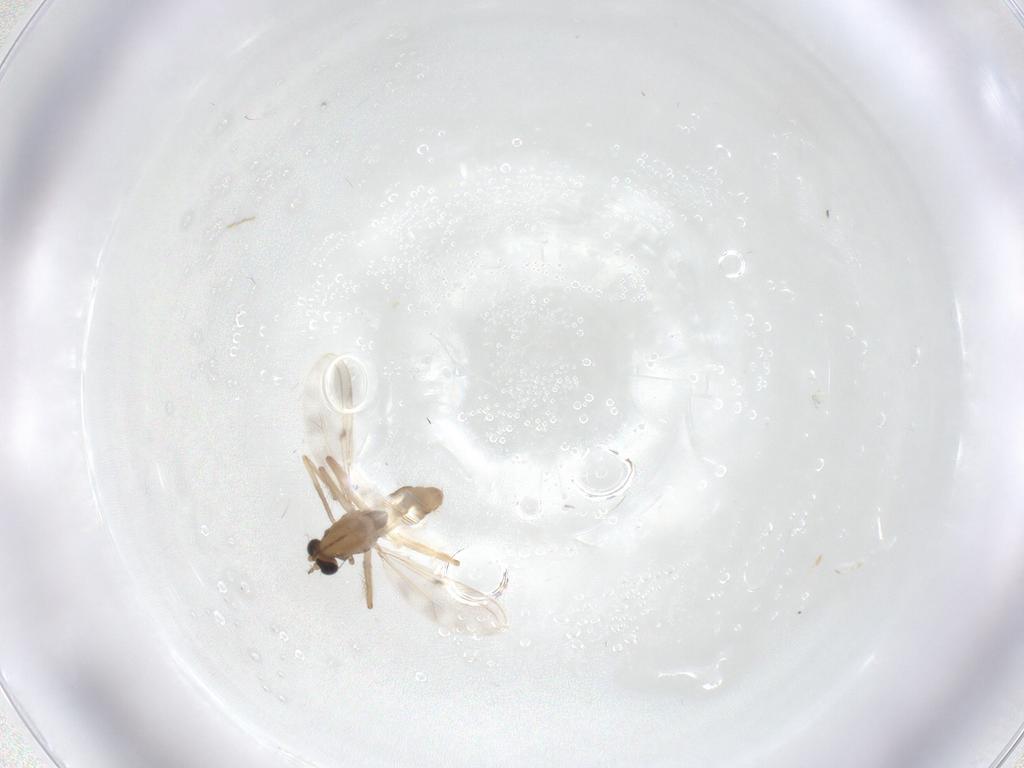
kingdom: Animalia
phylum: Arthropoda
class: Insecta
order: Diptera
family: Chironomidae
